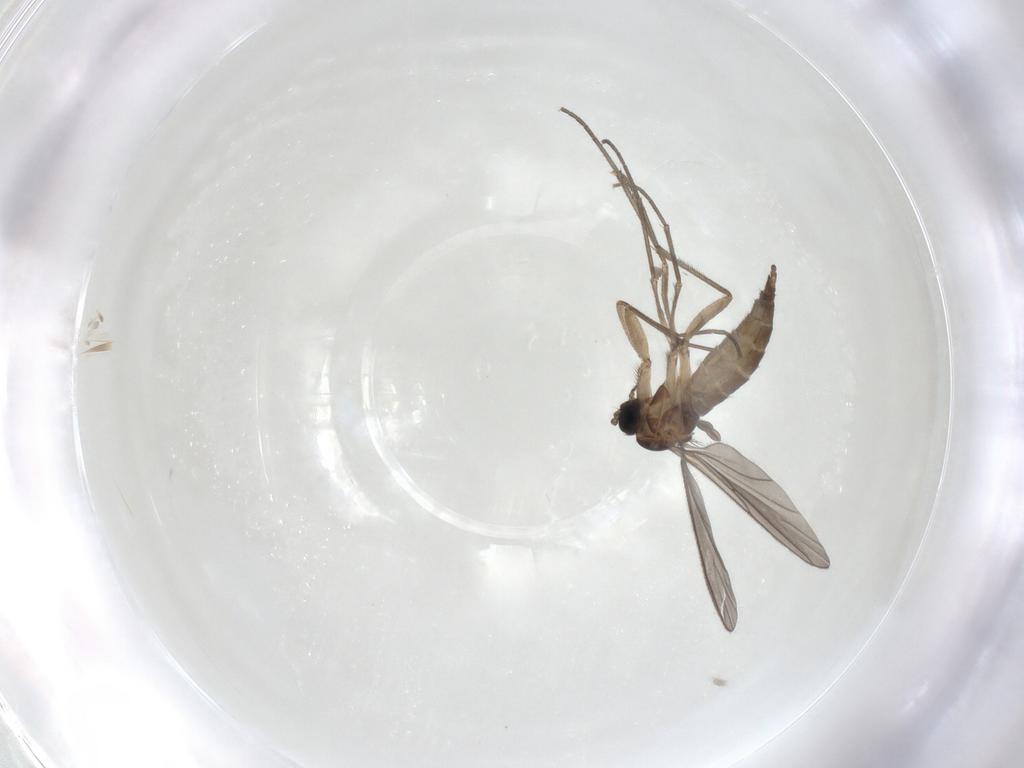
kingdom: Animalia
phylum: Arthropoda
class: Insecta
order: Diptera
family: Sciaridae
